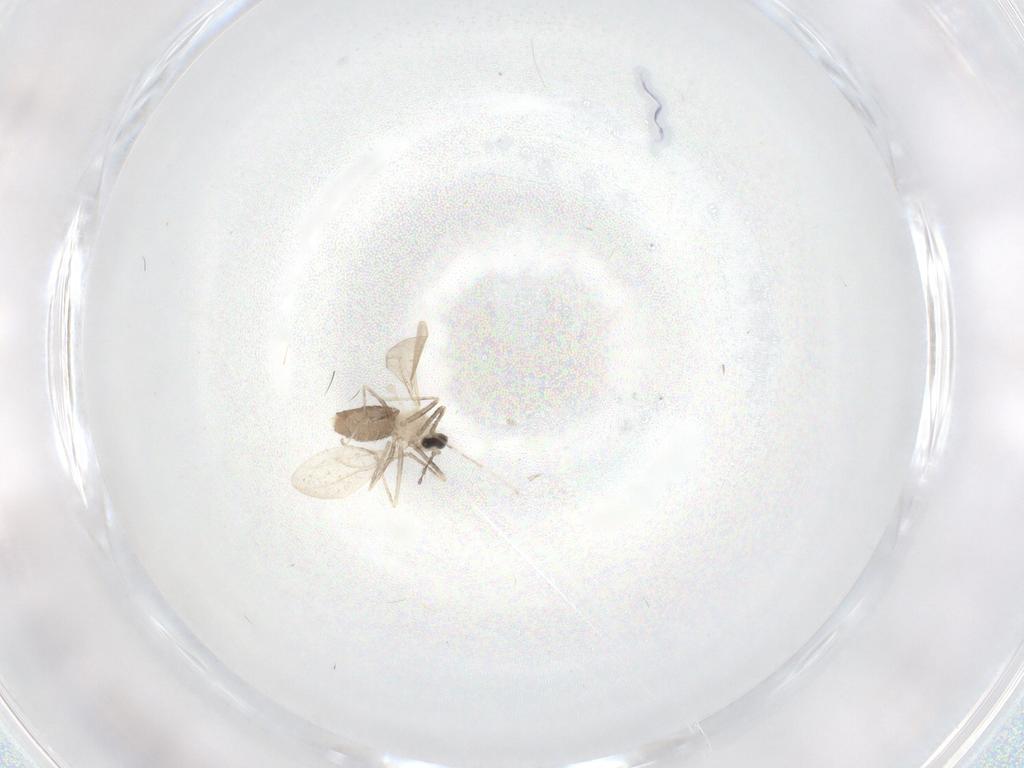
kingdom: Animalia
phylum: Arthropoda
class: Insecta
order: Diptera
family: Cecidomyiidae
